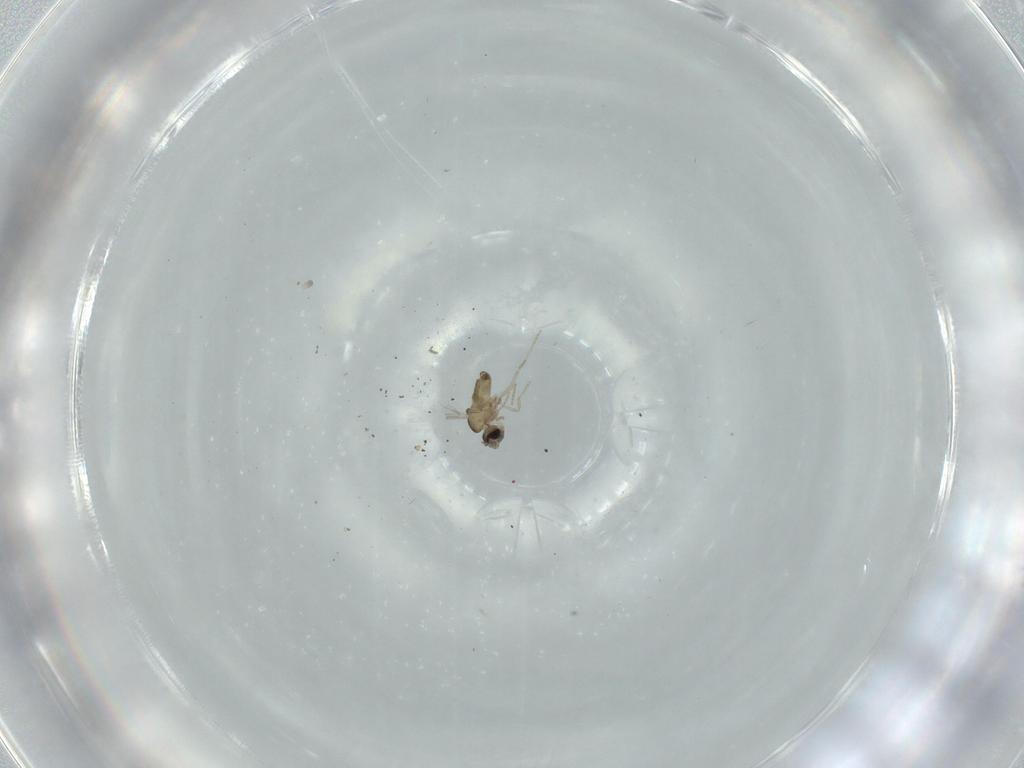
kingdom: Animalia
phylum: Arthropoda
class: Insecta
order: Diptera
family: Cecidomyiidae
